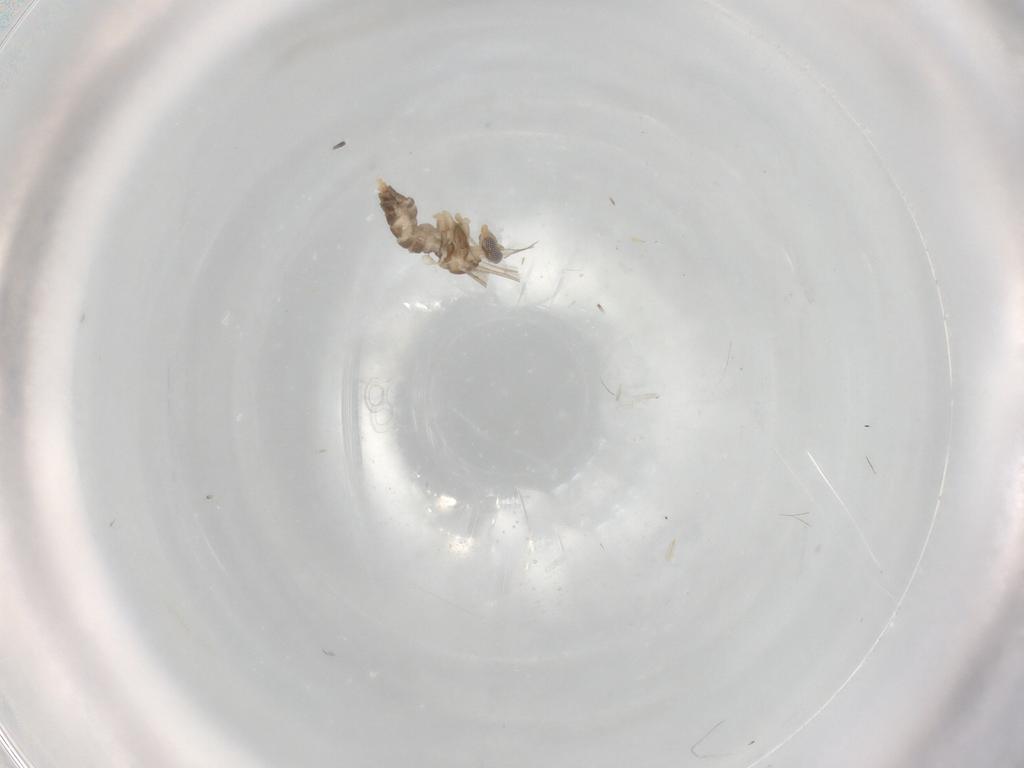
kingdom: Animalia
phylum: Arthropoda
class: Insecta
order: Diptera
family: Cecidomyiidae
